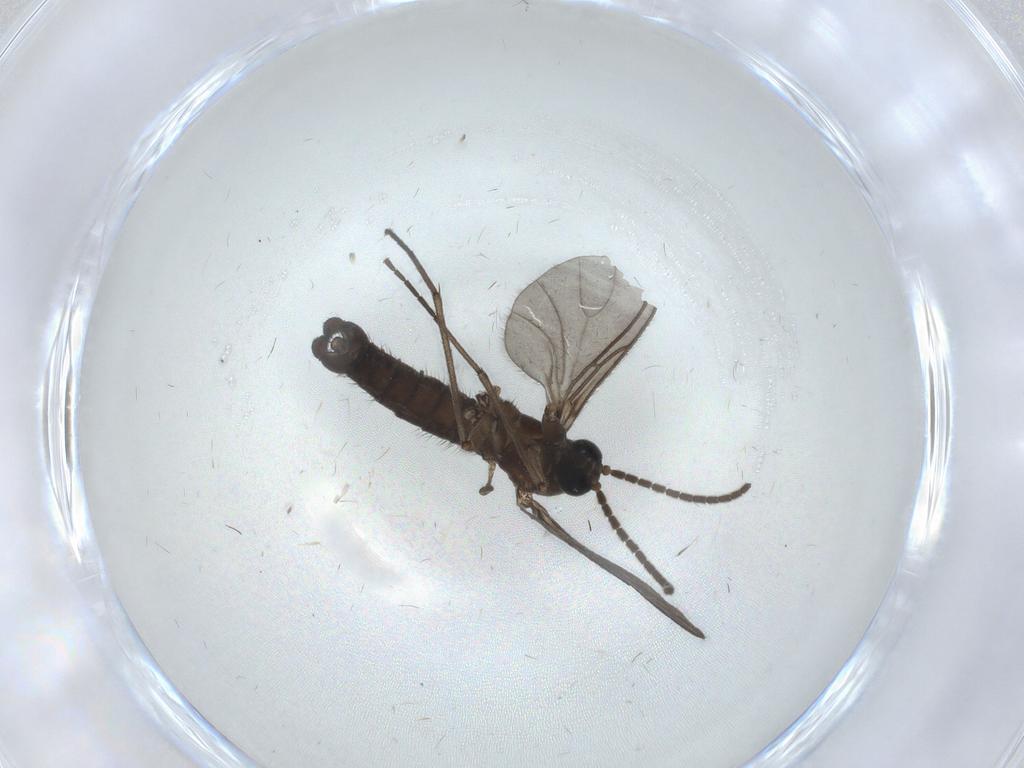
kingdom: Animalia
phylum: Arthropoda
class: Insecta
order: Diptera
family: Sciaridae
